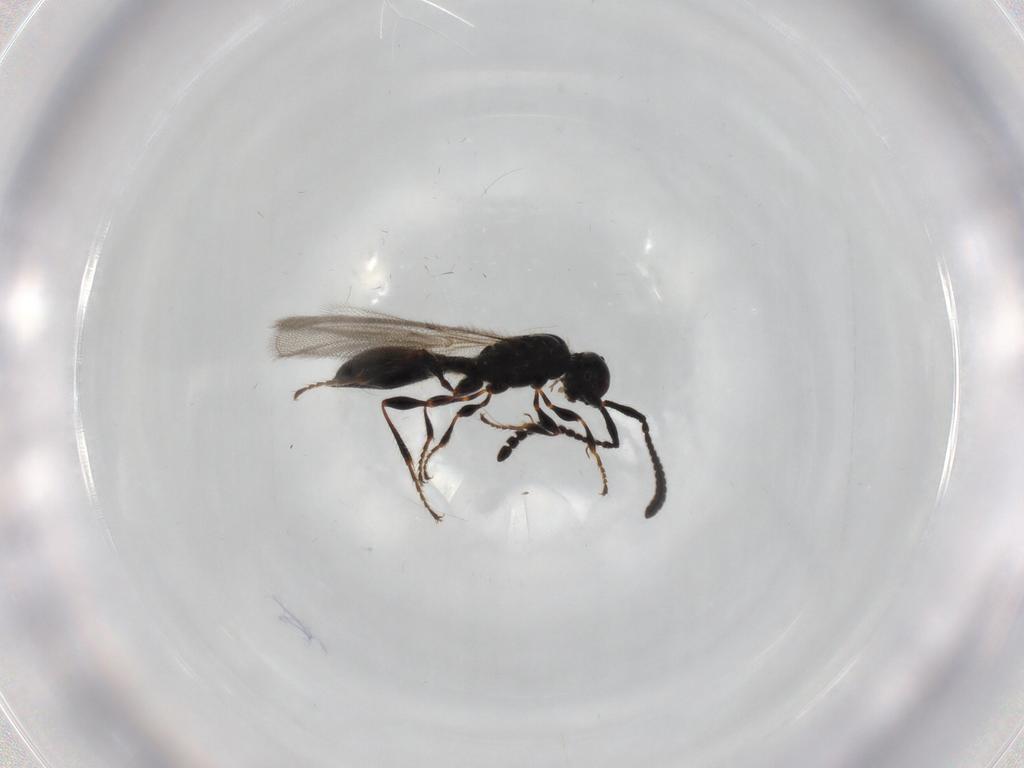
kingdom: Animalia
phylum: Arthropoda
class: Insecta
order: Hymenoptera
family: Diapriidae
